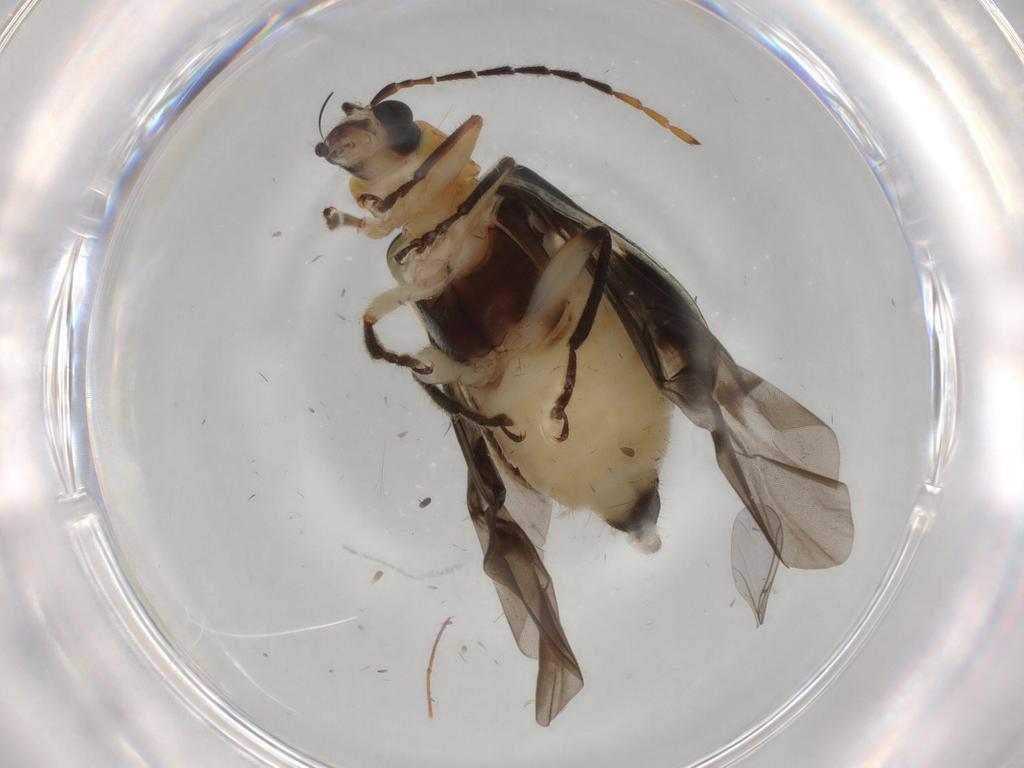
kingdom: Animalia
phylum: Arthropoda
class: Insecta
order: Coleoptera
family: Chrysomelidae
